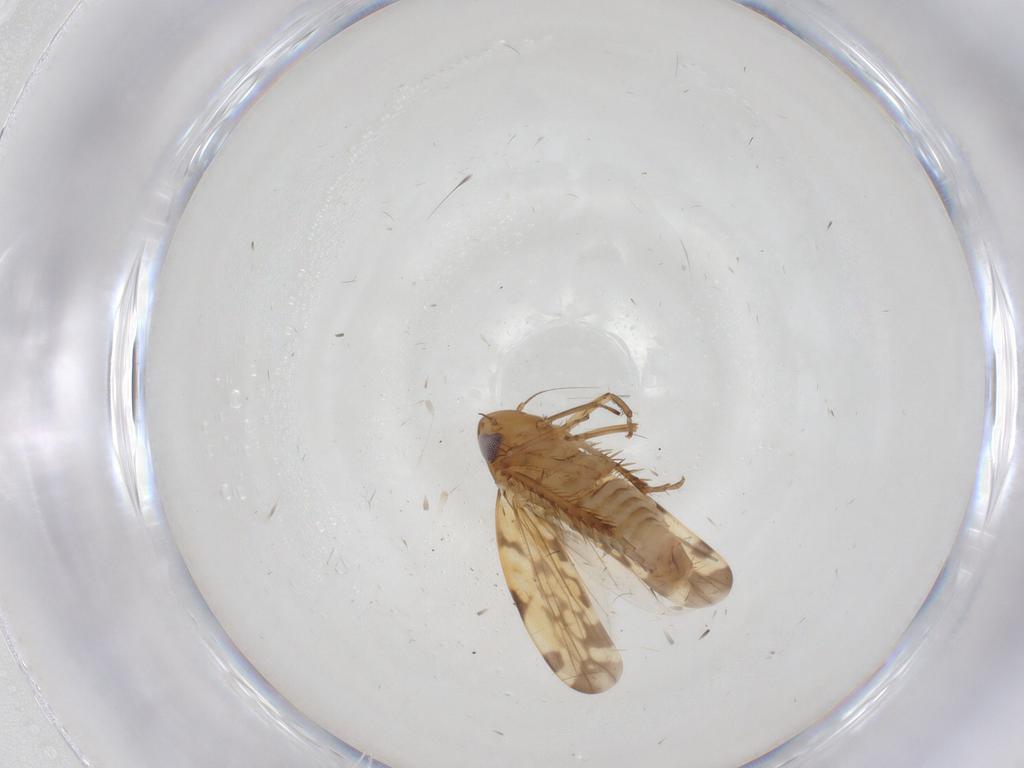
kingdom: Animalia
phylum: Arthropoda
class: Insecta
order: Hemiptera
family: Cicadellidae
